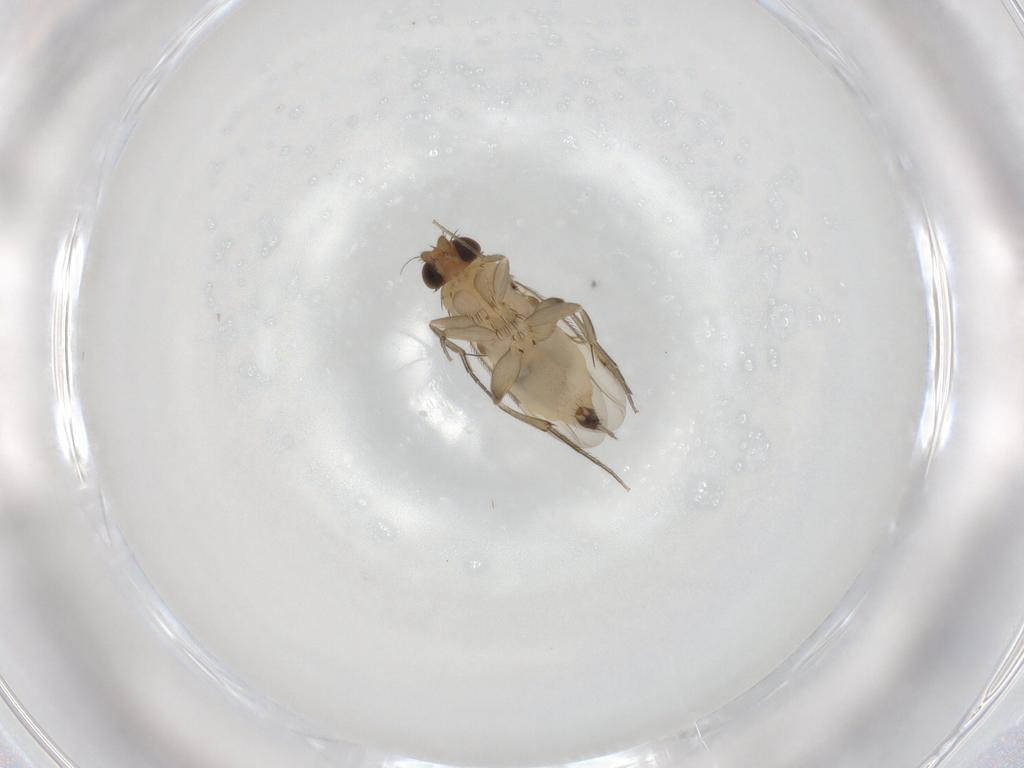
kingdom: Animalia
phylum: Arthropoda
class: Insecta
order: Diptera
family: Phoridae
